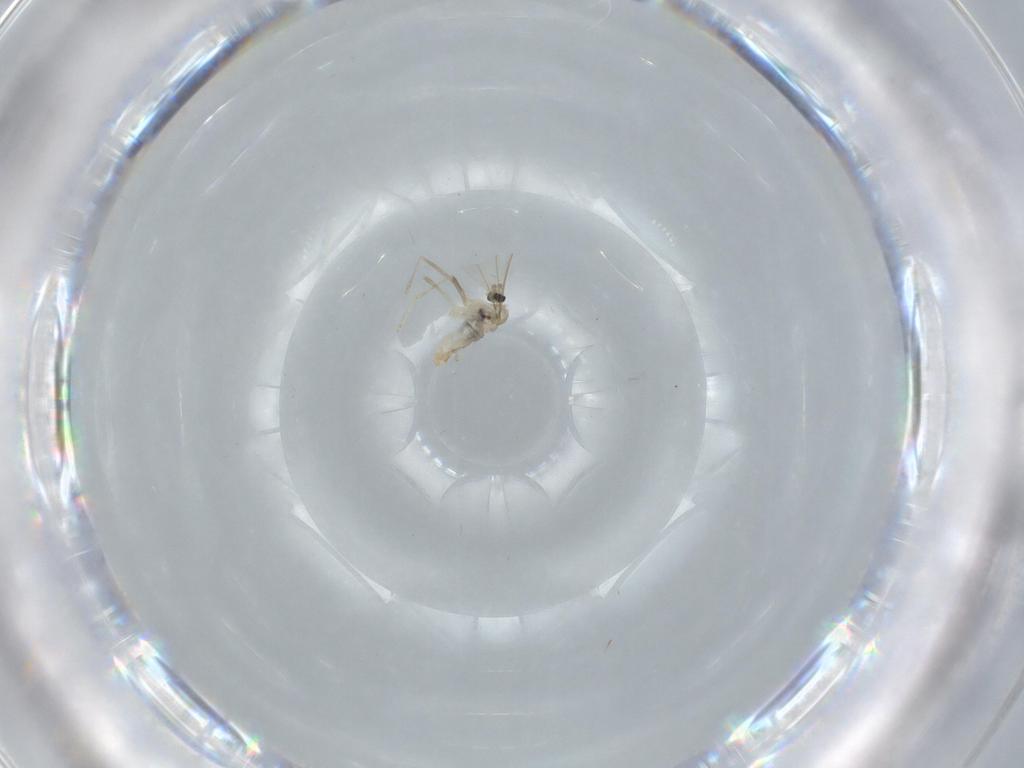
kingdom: Animalia
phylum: Arthropoda
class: Insecta
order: Diptera
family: Cecidomyiidae
